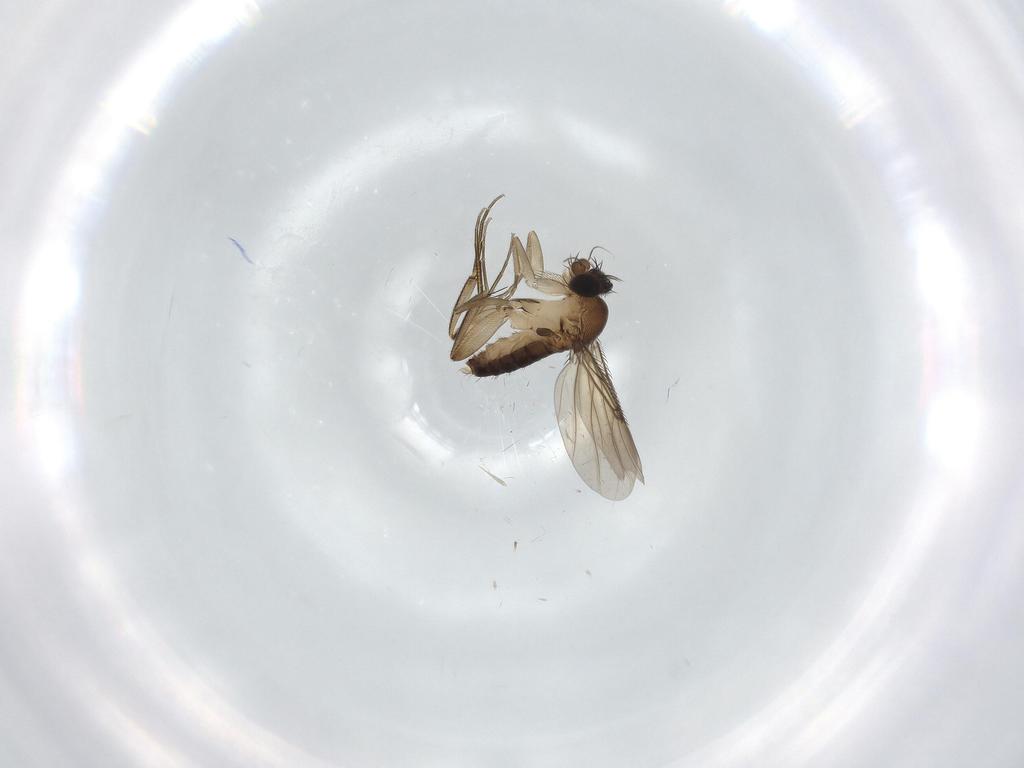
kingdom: Animalia
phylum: Arthropoda
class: Insecta
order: Diptera
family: Phoridae
